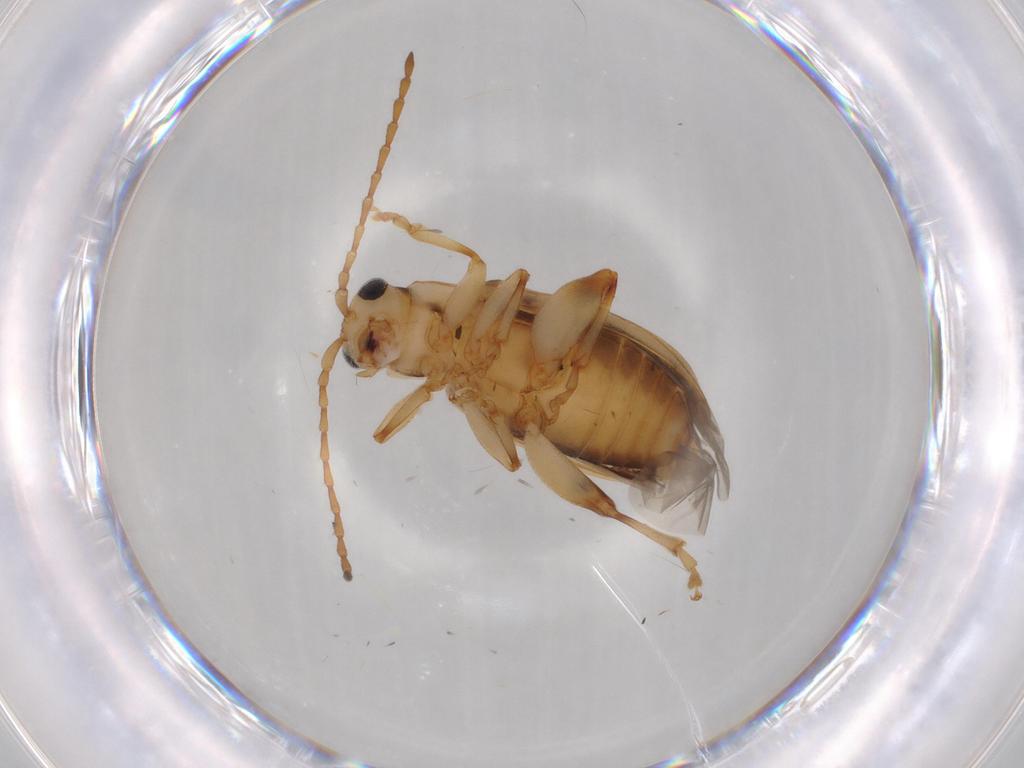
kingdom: Animalia
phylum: Arthropoda
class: Insecta
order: Coleoptera
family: Chrysomelidae
